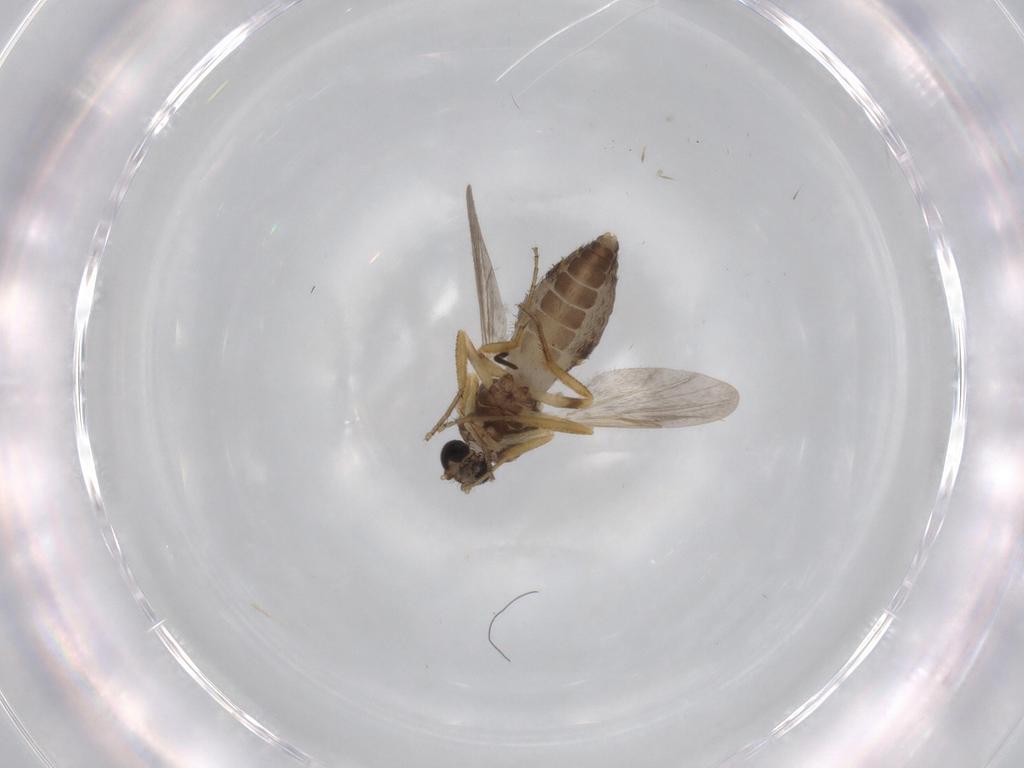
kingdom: Animalia
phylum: Arthropoda
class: Insecta
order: Diptera
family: Ceratopogonidae
